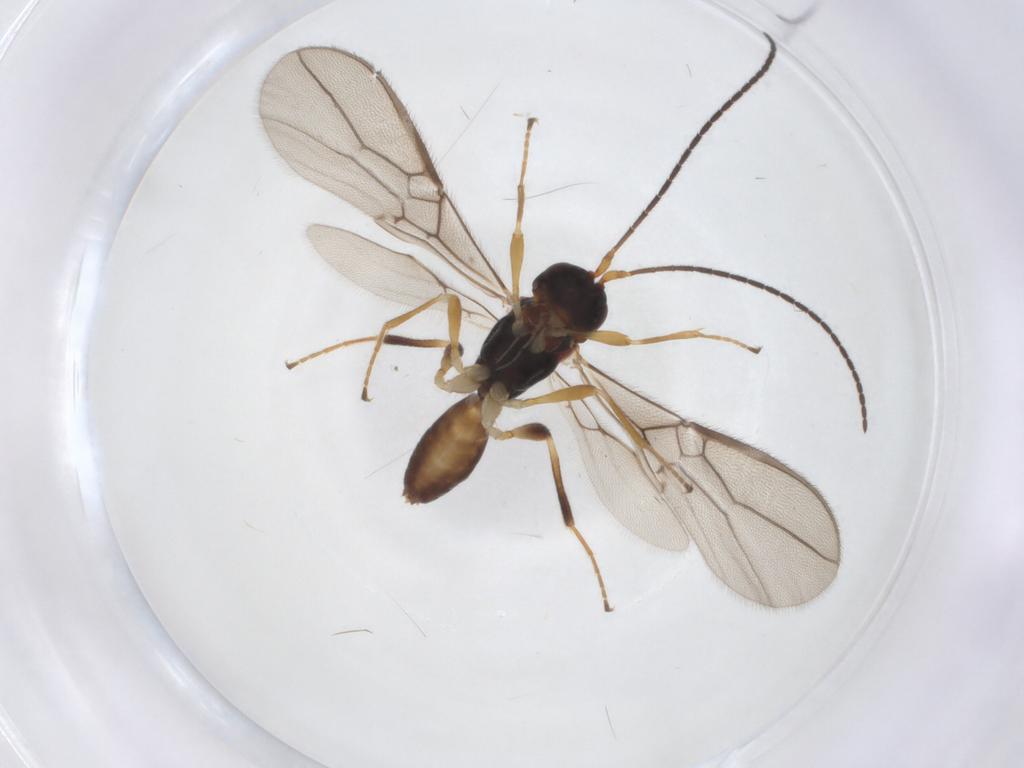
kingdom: Animalia
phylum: Arthropoda
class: Insecta
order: Hymenoptera
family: Braconidae
